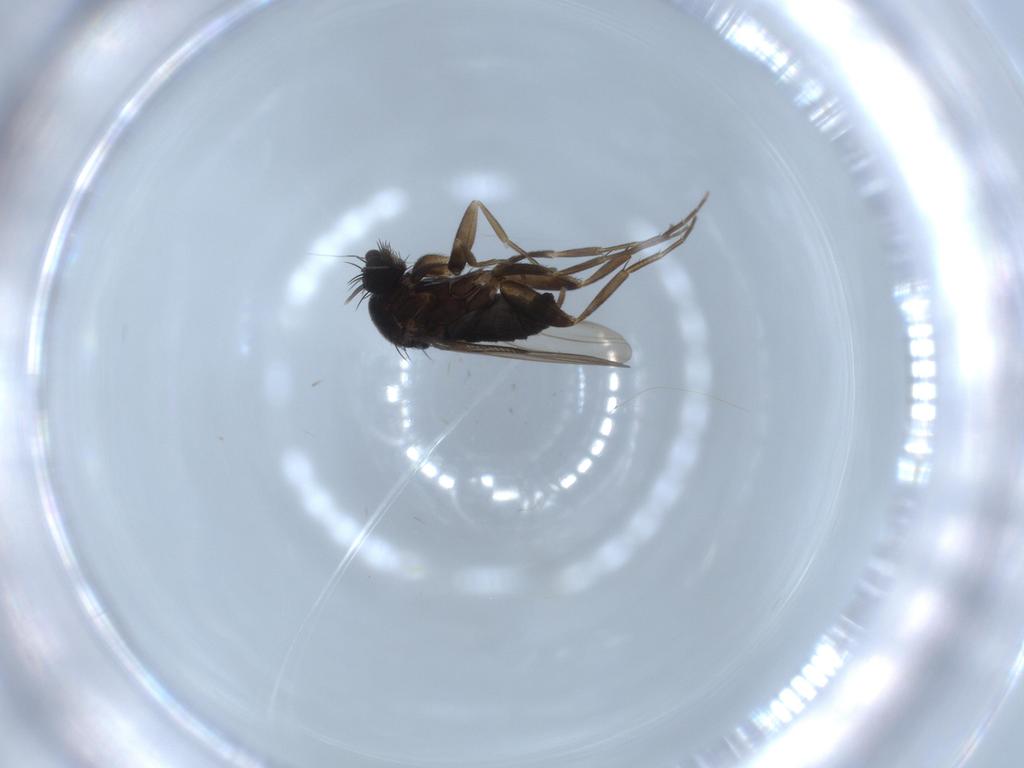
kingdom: Animalia
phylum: Arthropoda
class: Insecta
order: Diptera
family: Phoridae
